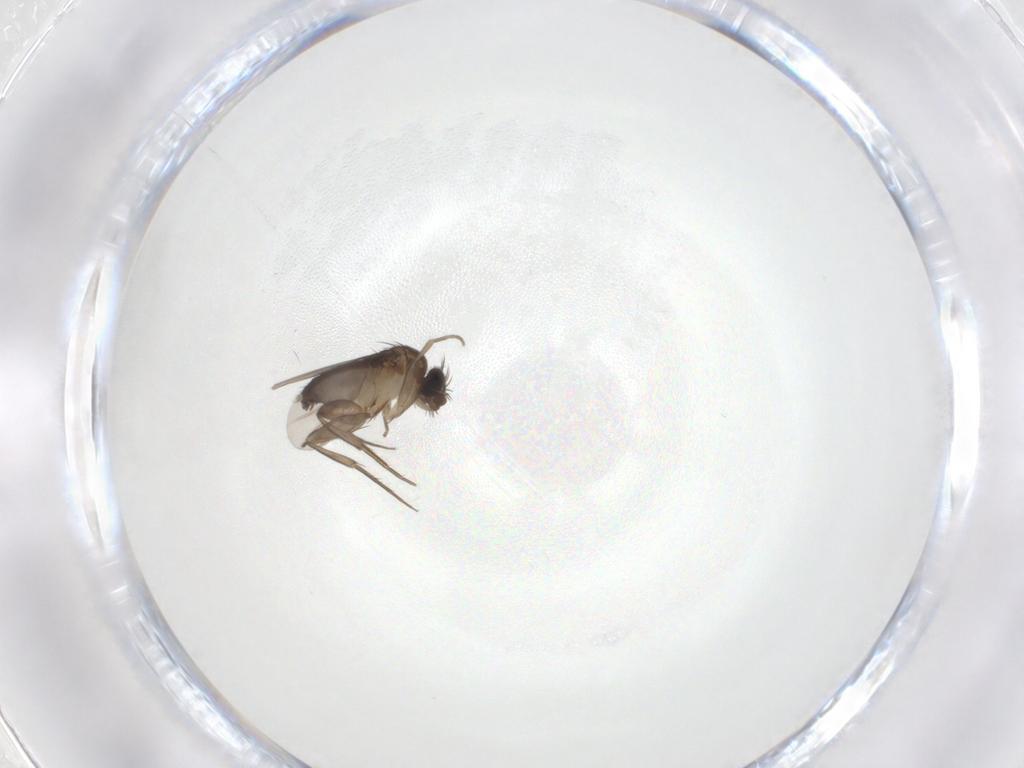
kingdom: Animalia
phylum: Arthropoda
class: Insecta
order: Diptera
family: Phoridae
